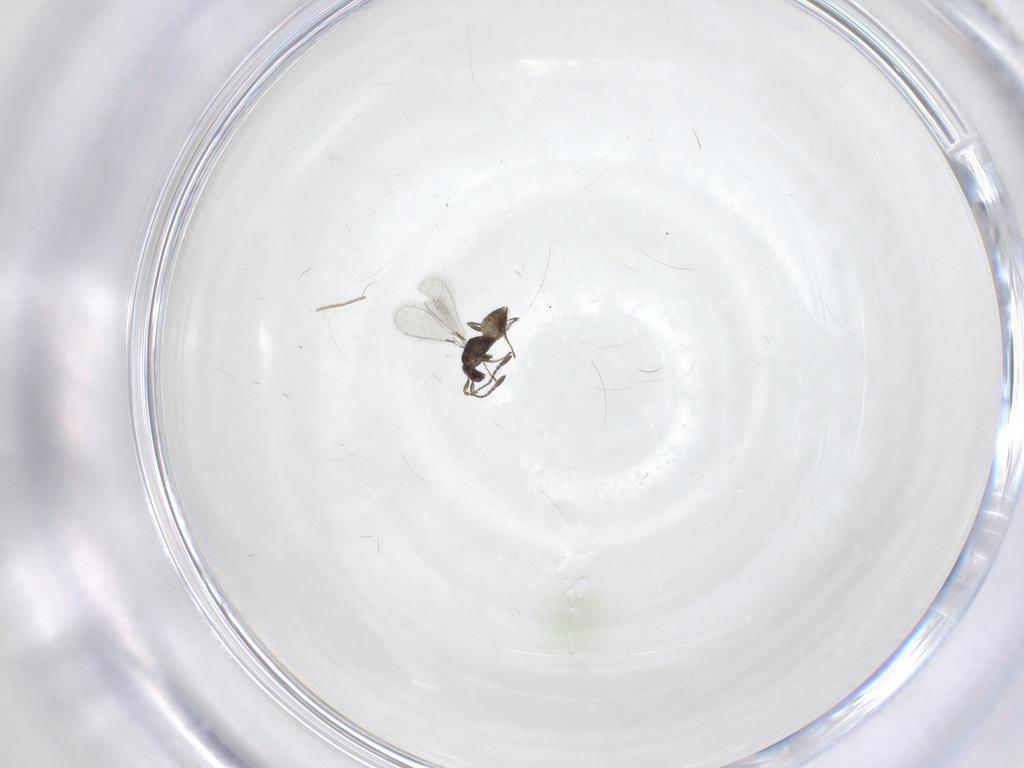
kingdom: Animalia
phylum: Arthropoda
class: Insecta
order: Hymenoptera
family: Mymaridae
